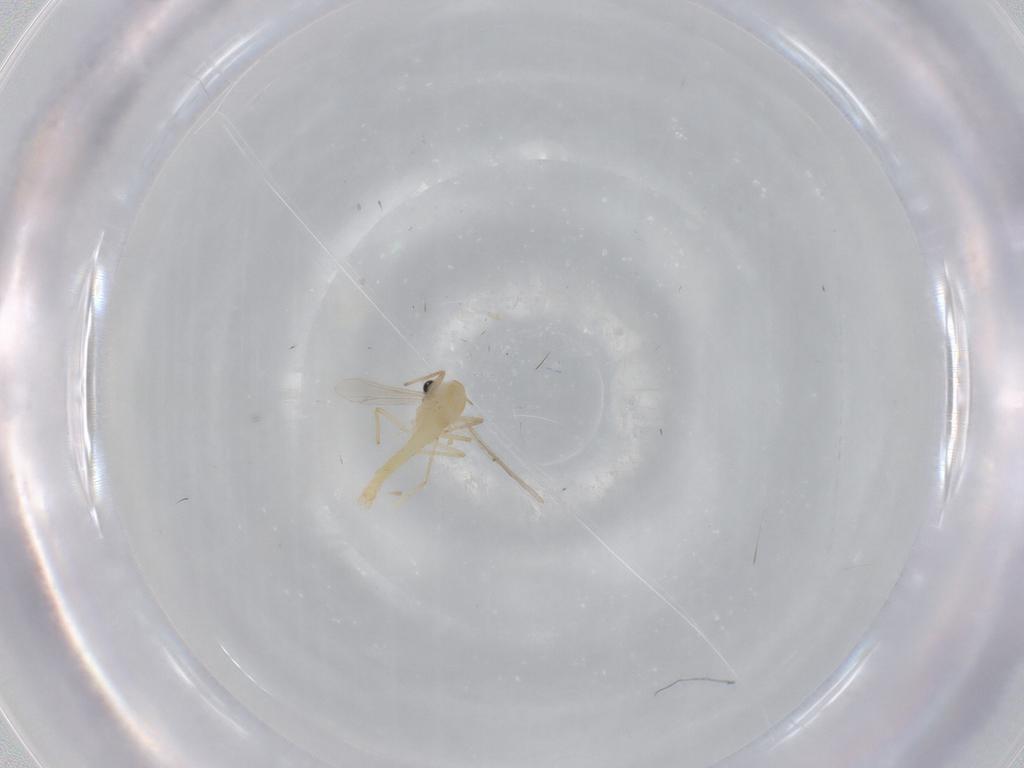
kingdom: Animalia
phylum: Arthropoda
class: Insecta
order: Diptera
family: Chironomidae
